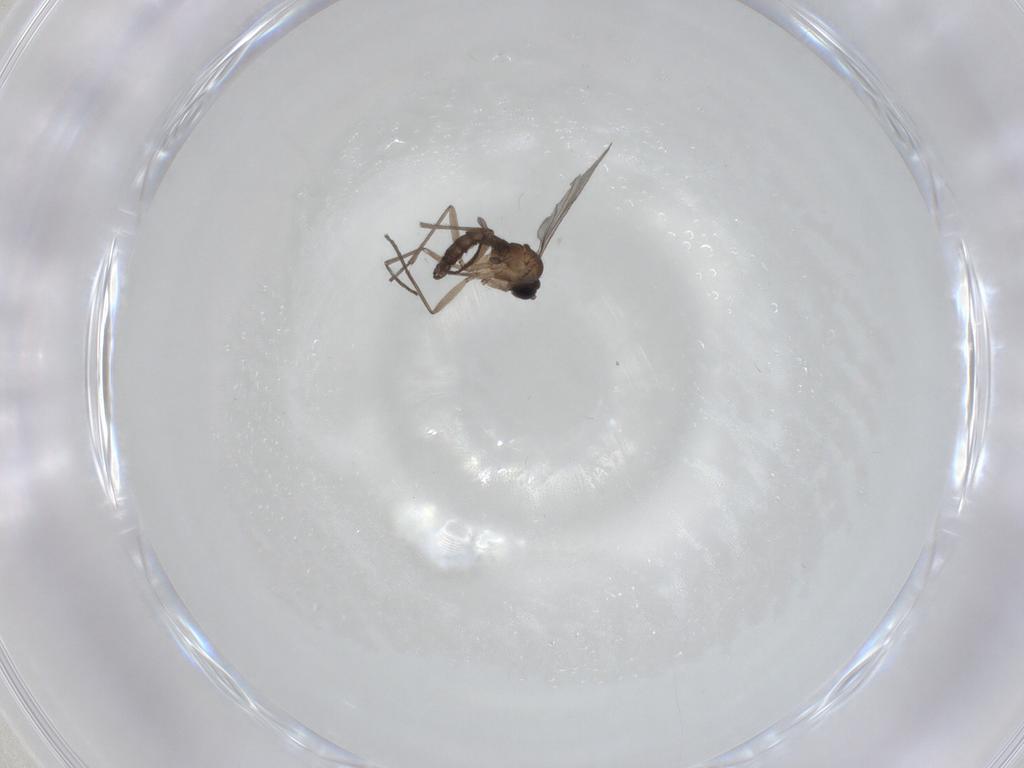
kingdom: Animalia
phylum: Arthropoda
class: Insecta
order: Diptera
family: Sciaridae
